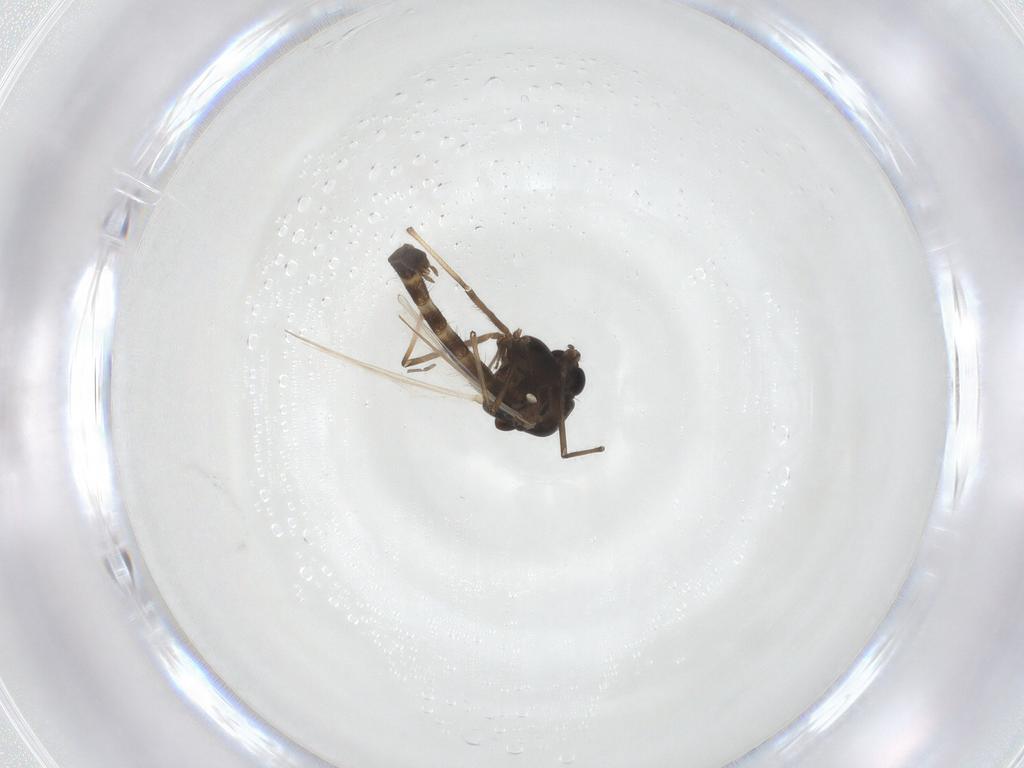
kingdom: Animalia
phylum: Arthropoda
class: Insecta
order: Diptera
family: Chironomidae
